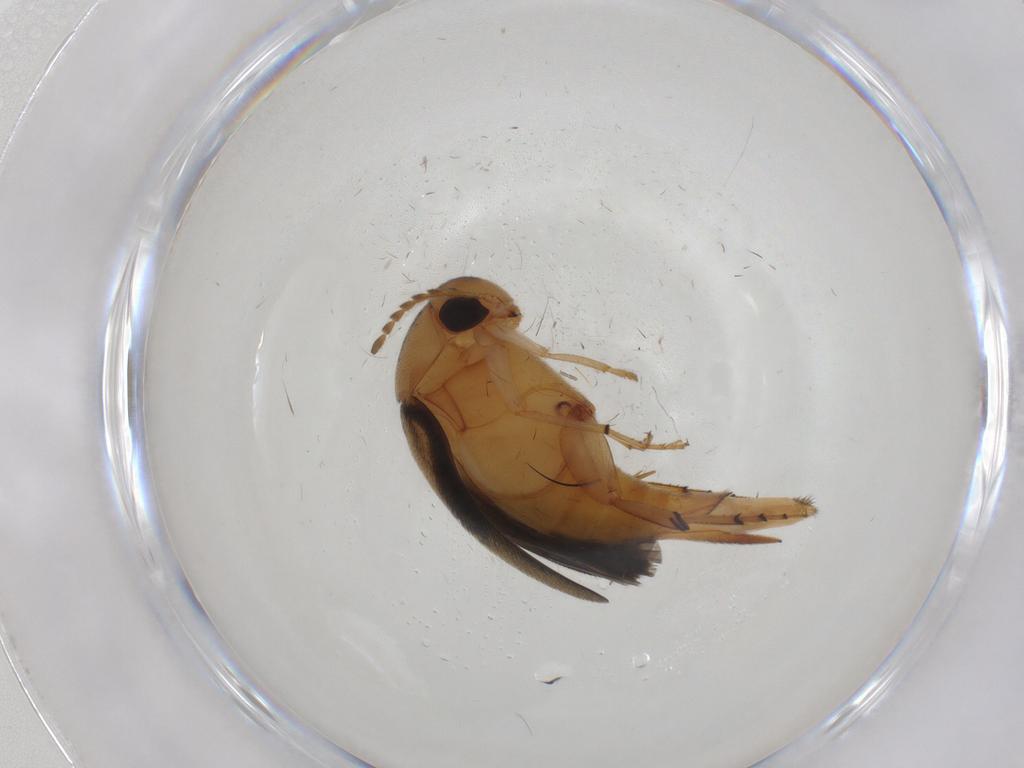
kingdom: Animalia
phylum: Arthropoda
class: Insecta
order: Coleoptera
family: Mordellidae
